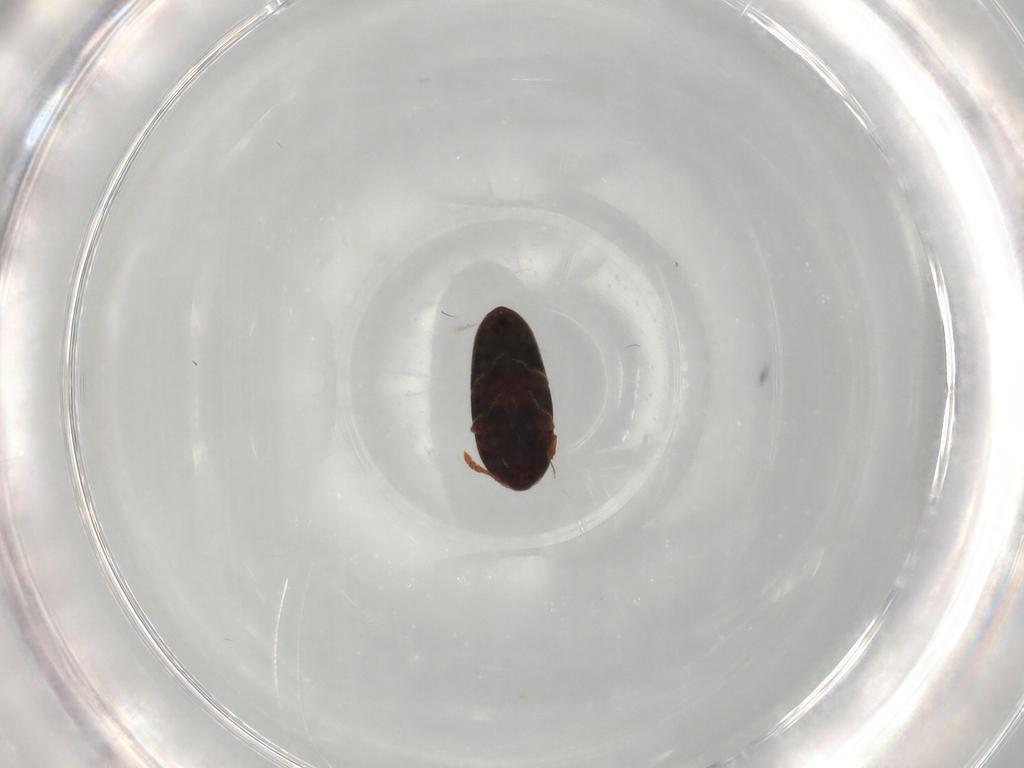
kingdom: Animalia
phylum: Arthropoda
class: Insecta
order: Coleoptera
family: Throscidae
